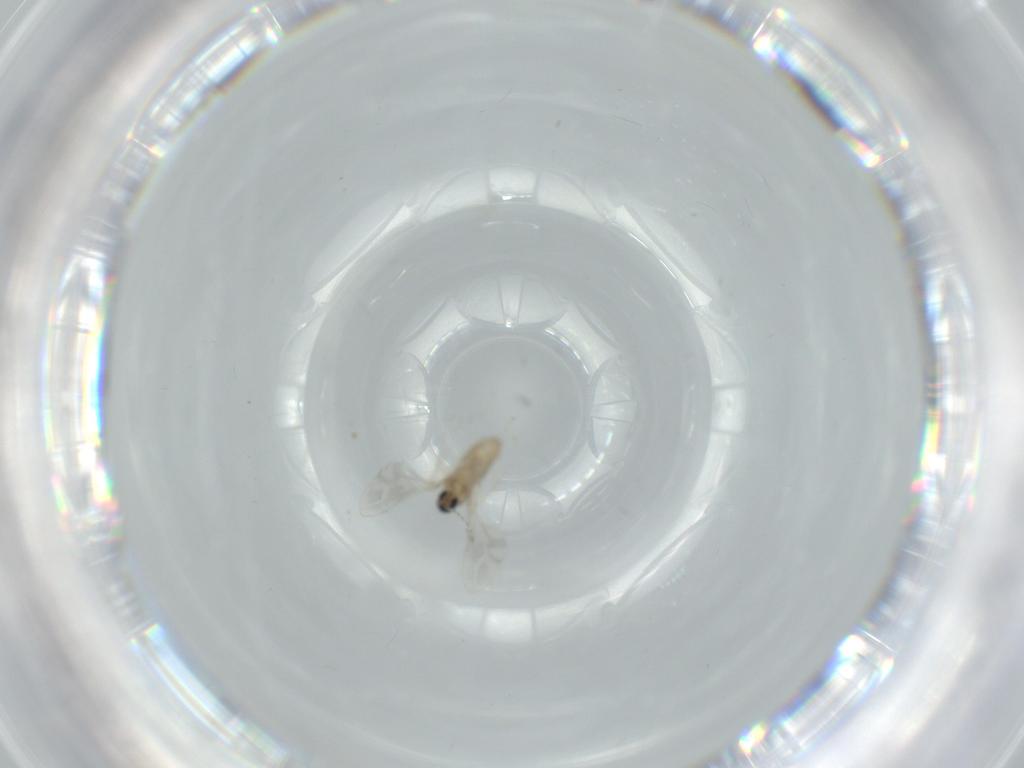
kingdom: Animalia
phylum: Arthropoda
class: Insecta
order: Diptera
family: Cecidomyiidae
